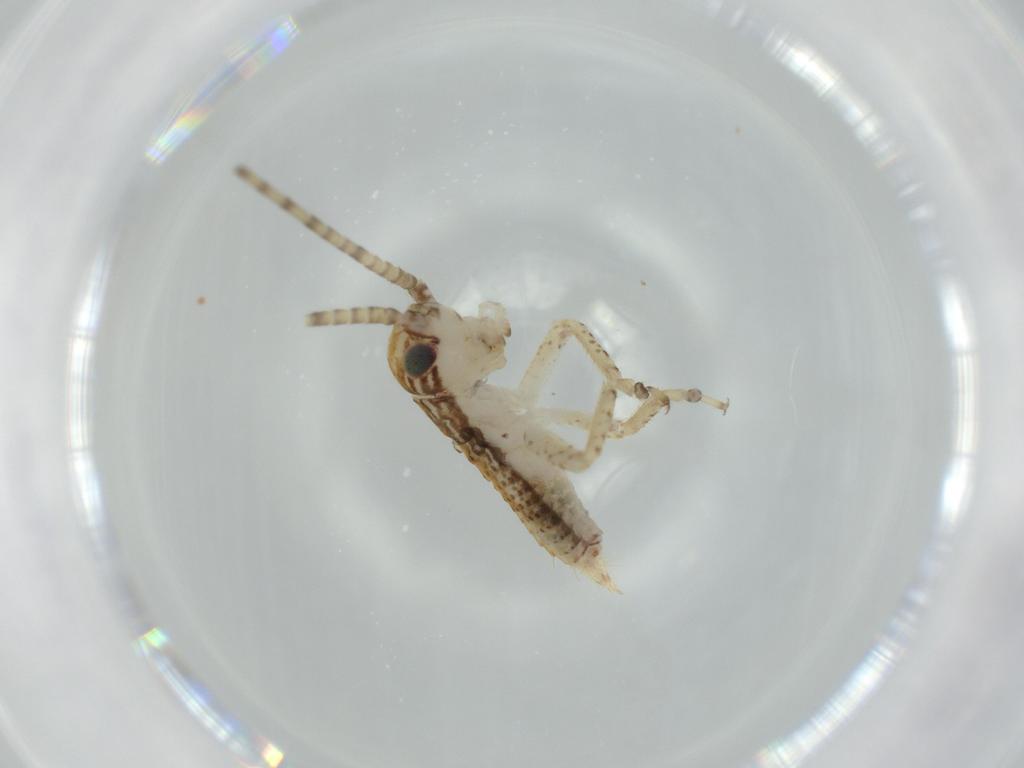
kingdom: Animalia
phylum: Arthropoda
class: Insecta
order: Orthoptera
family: Gryllidae
